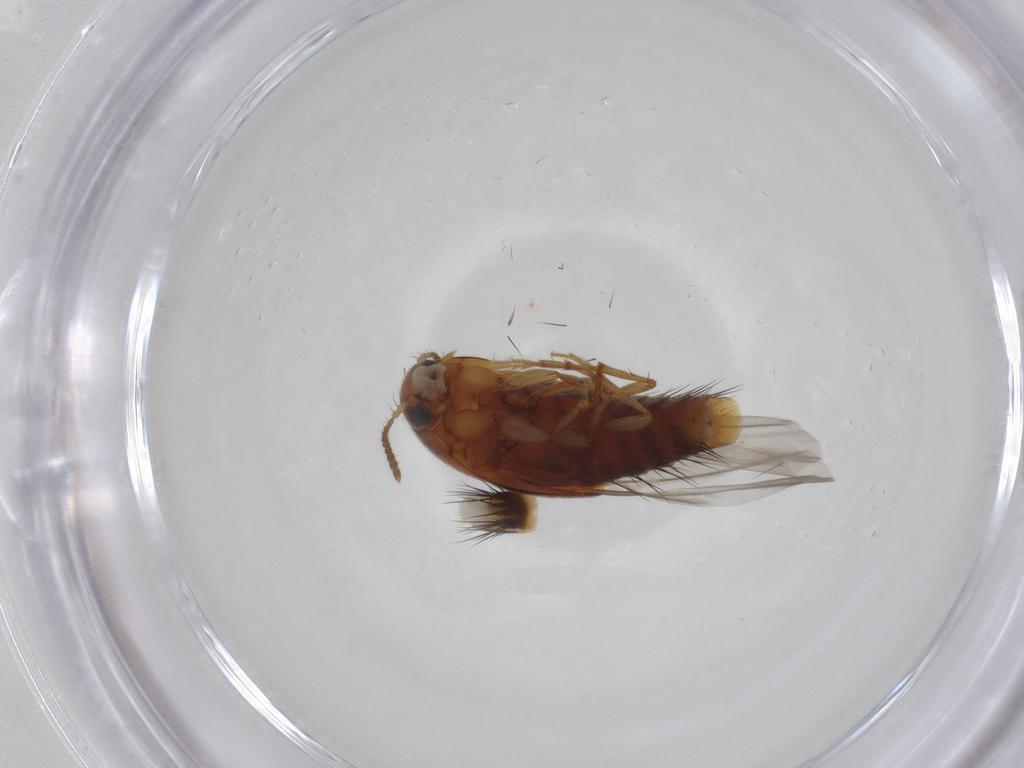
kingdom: Animalia
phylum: Arthropoda
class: Insecta
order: Coleoptera
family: Staphylinidae
